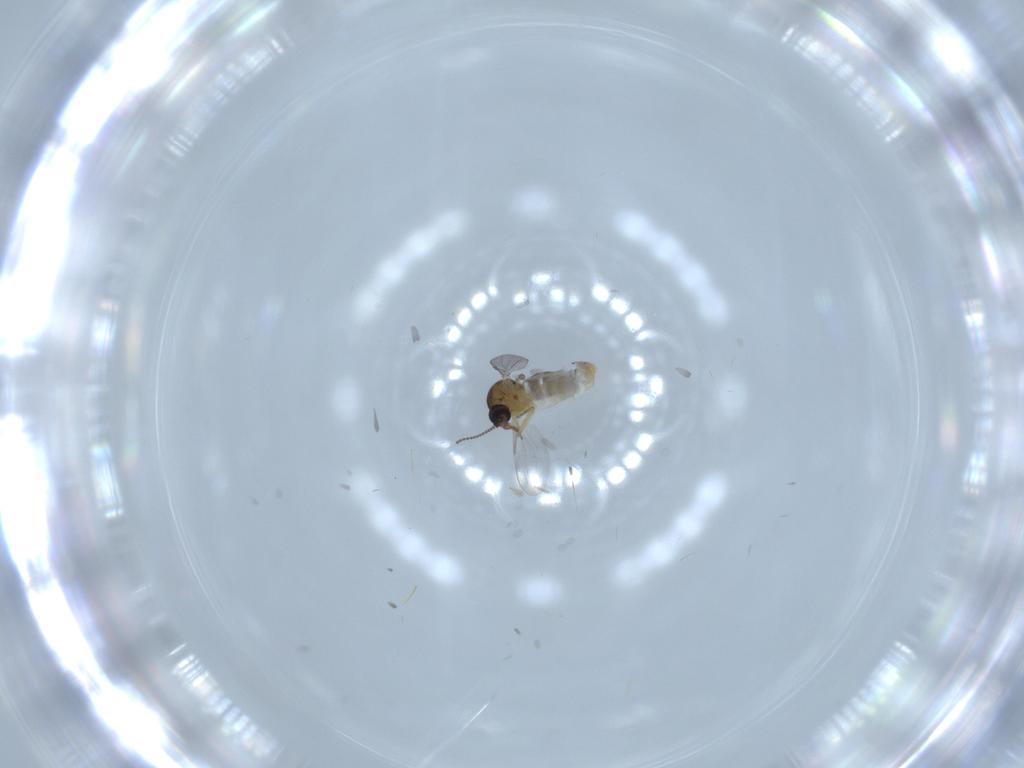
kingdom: Animalia
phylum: Arthropoda
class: Insecta
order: Diptera
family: Ceratopogonidae
